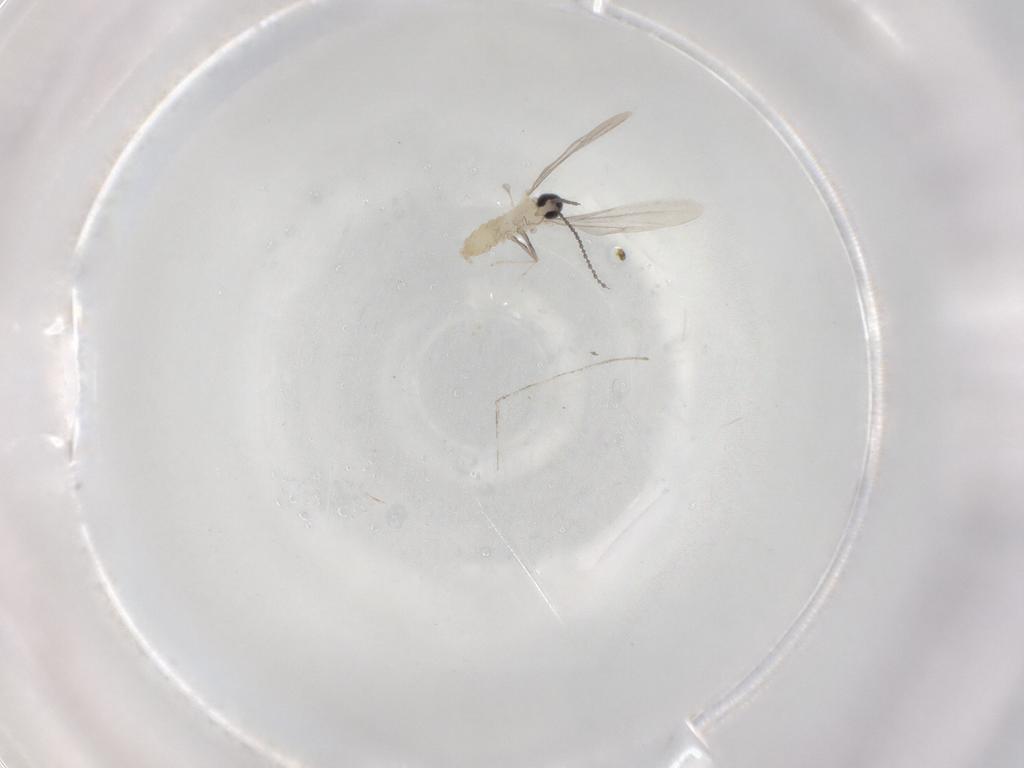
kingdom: Animalia
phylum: Arthropoda
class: Insecta
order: Diptera
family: Cecidomyiidae
